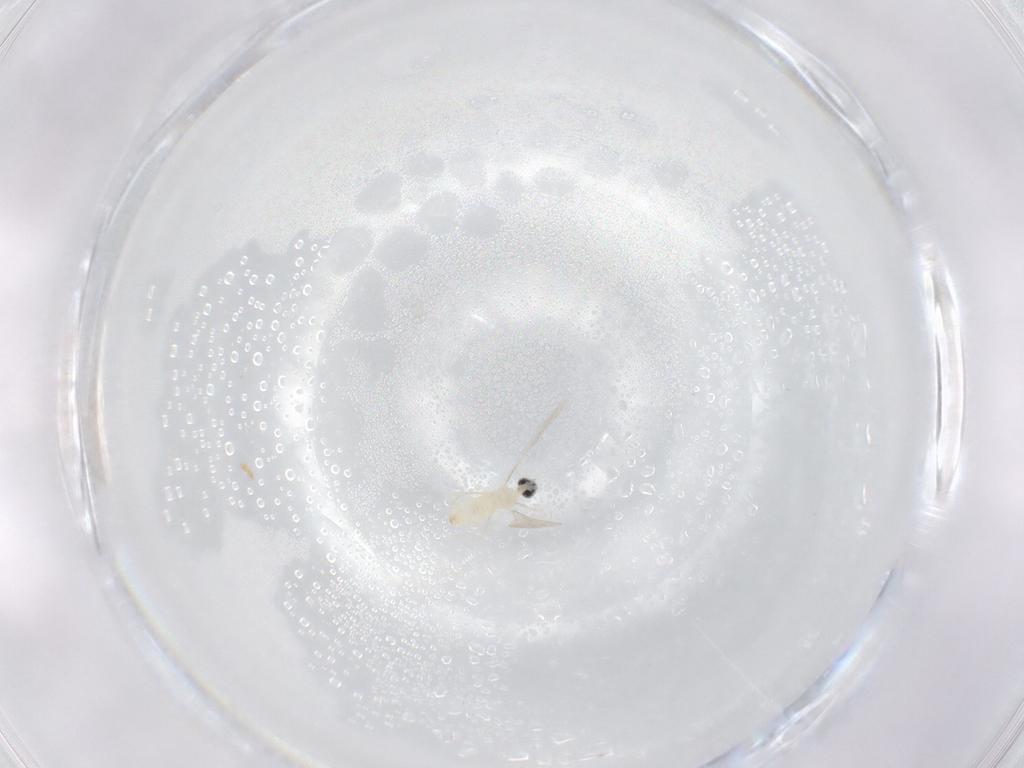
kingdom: Animalia
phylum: Arthropoda
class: Insecta
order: Diptera
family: Cecidomyiidae
